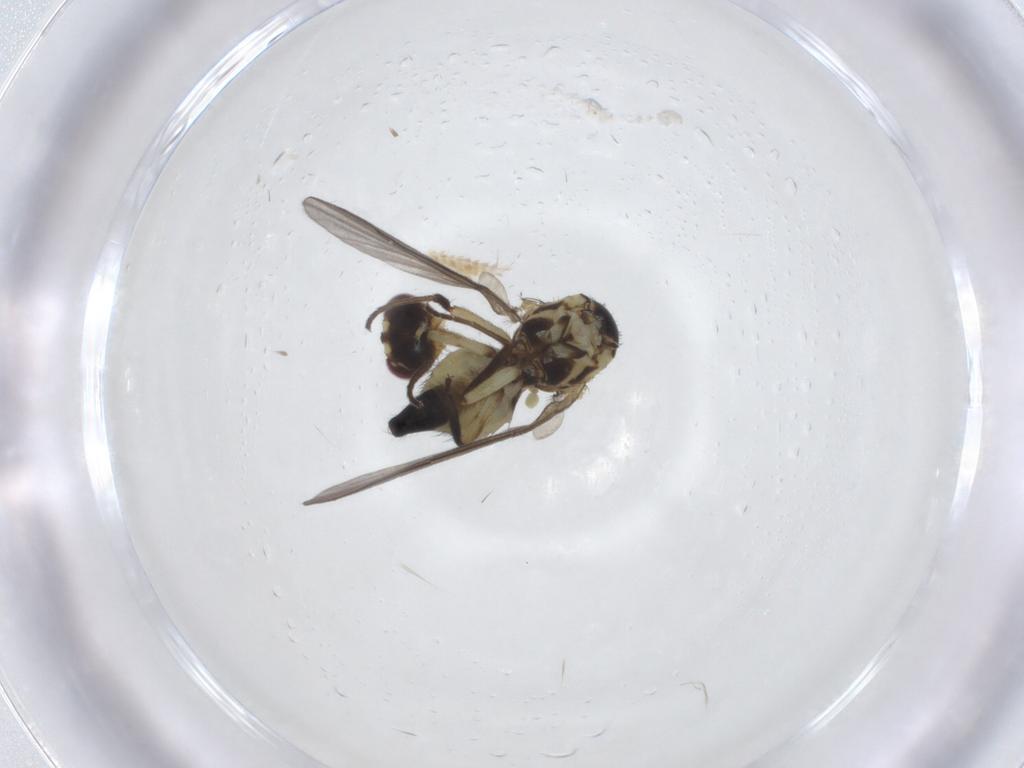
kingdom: Animalia
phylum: Arthropoda
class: Insecta
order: Diptera
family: Agromyzidae
